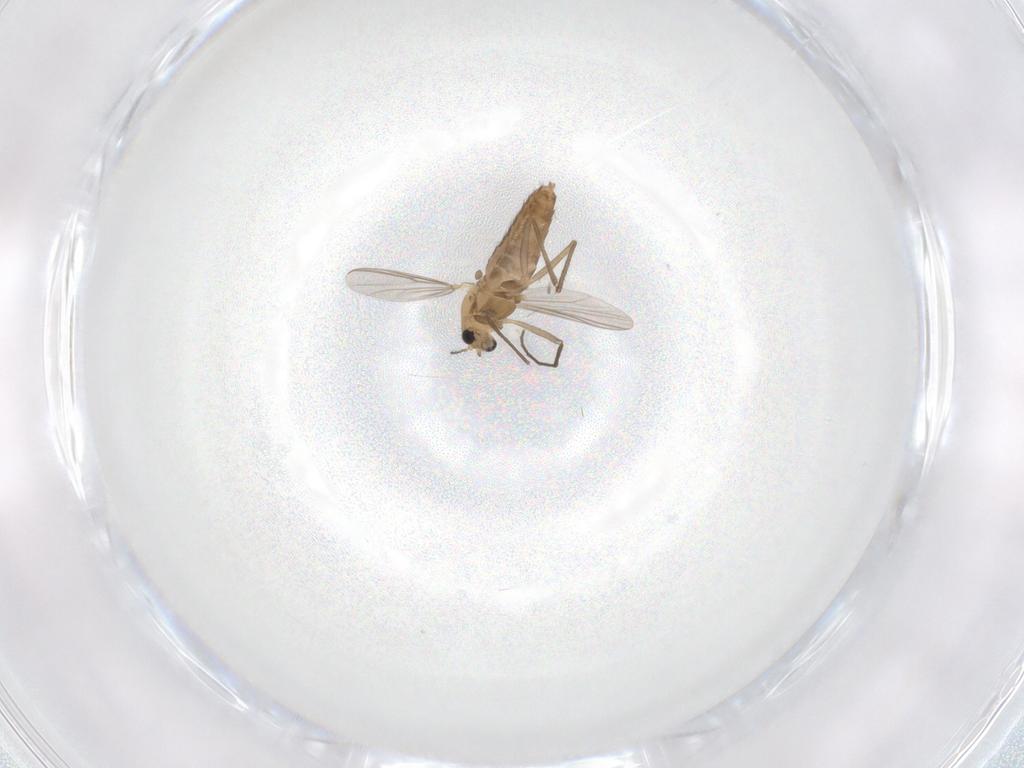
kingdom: Animalia
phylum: Arthropoda
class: Insecta
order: Diptera
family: Chironomidae
